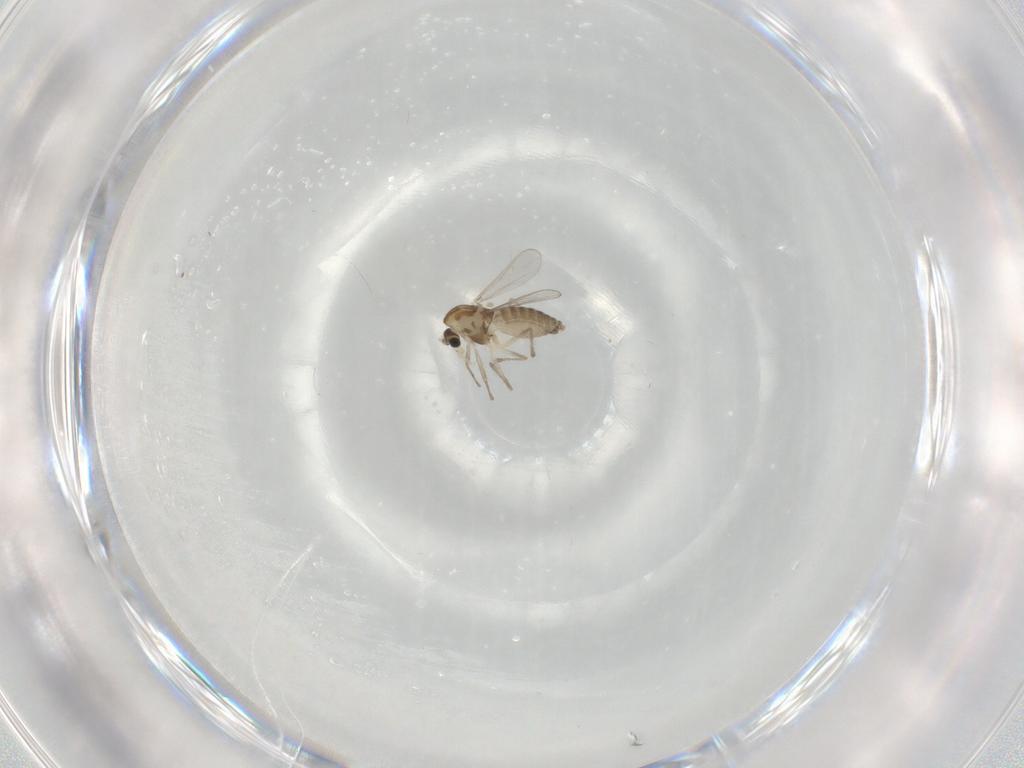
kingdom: Animalia
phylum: Arthropoda
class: Insecta
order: Diptera
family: Chironomidae
